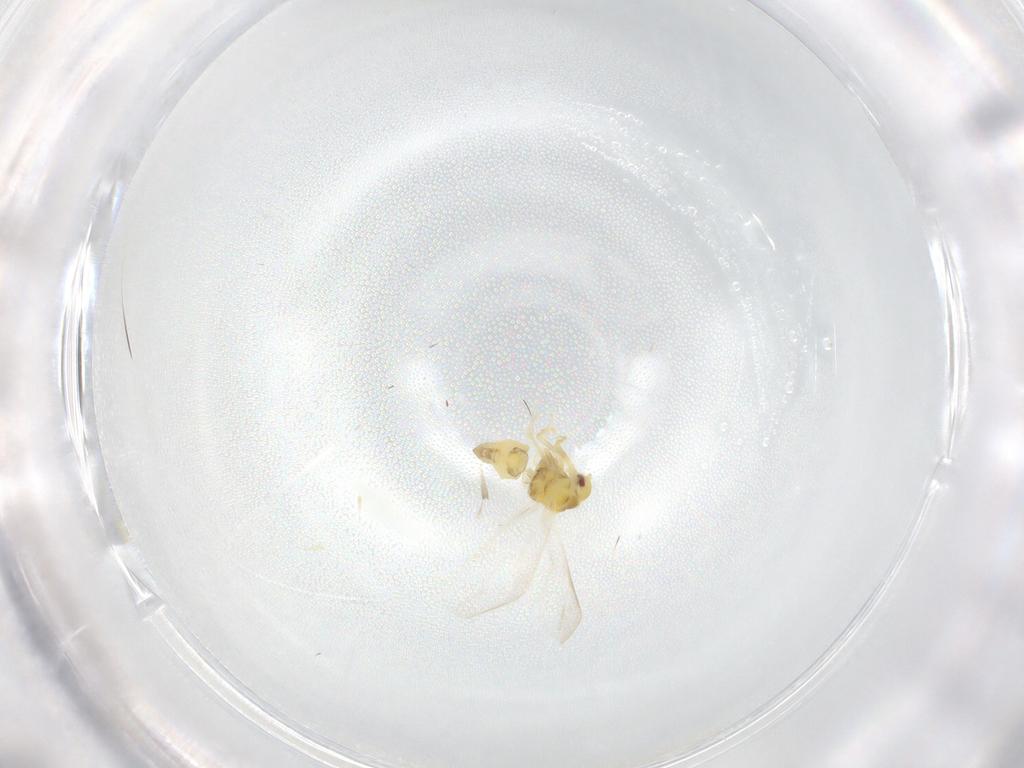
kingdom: Animalia
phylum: Arthropoda
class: Insecta
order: Hemiptera
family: Aleyrodidae
